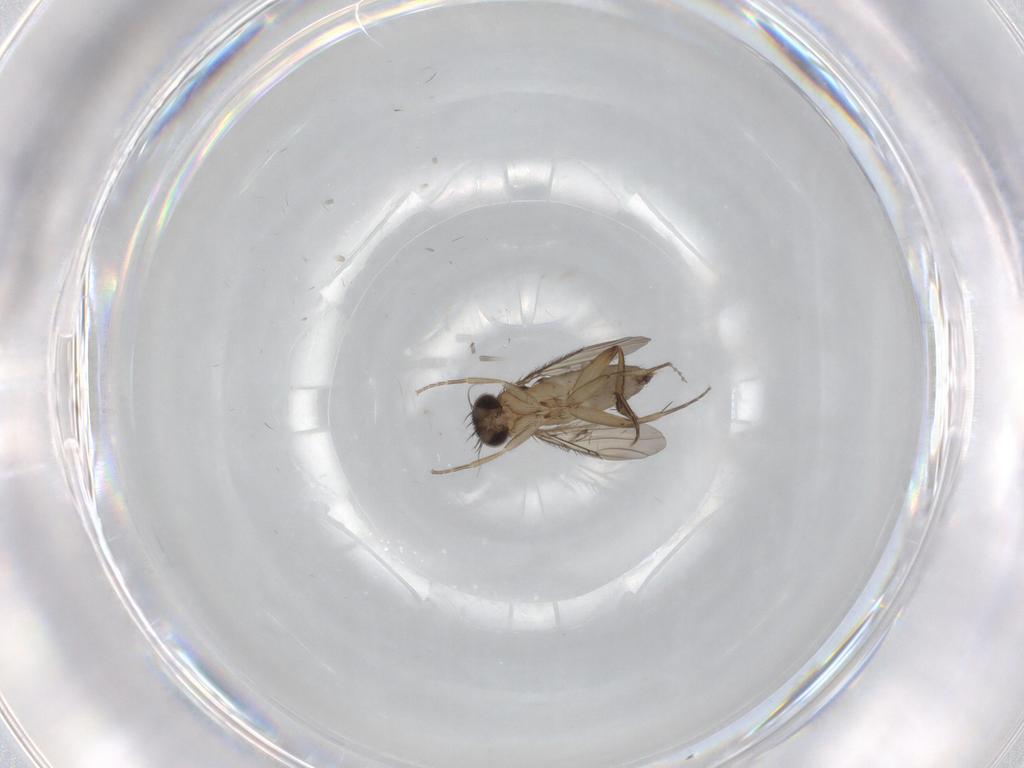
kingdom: Animalia
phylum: Arthropoda
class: Insecta
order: Diptera
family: Phoridae
